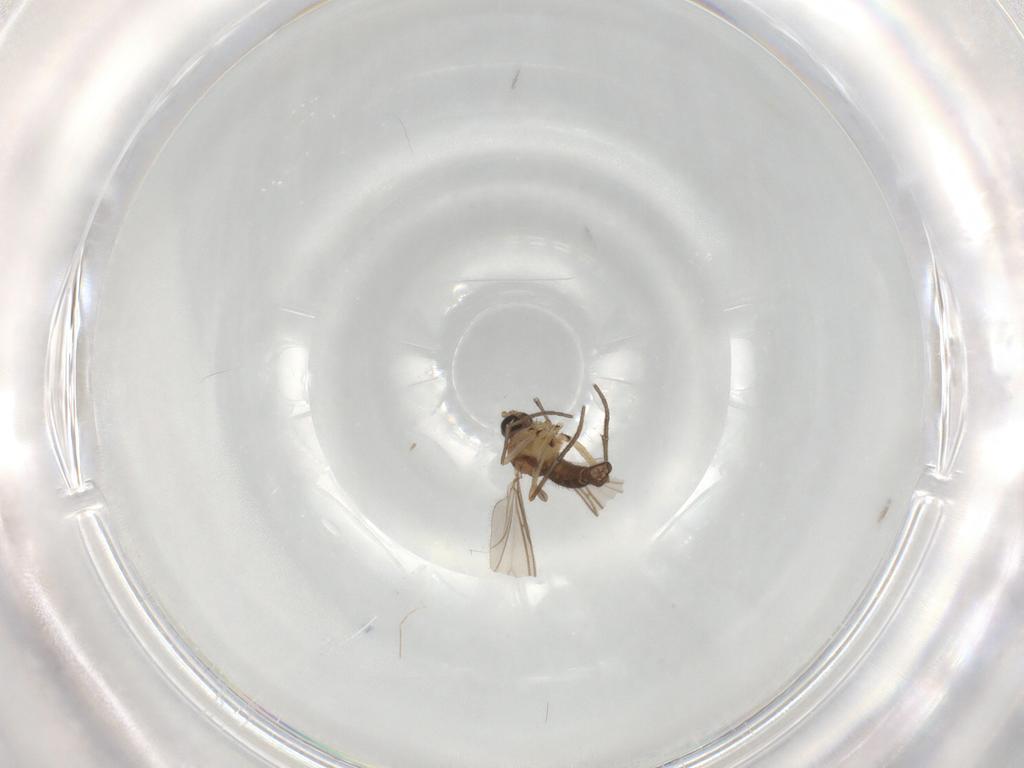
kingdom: Animalia
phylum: Arthropoda
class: Insecta
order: Diptera
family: Sciaridae
